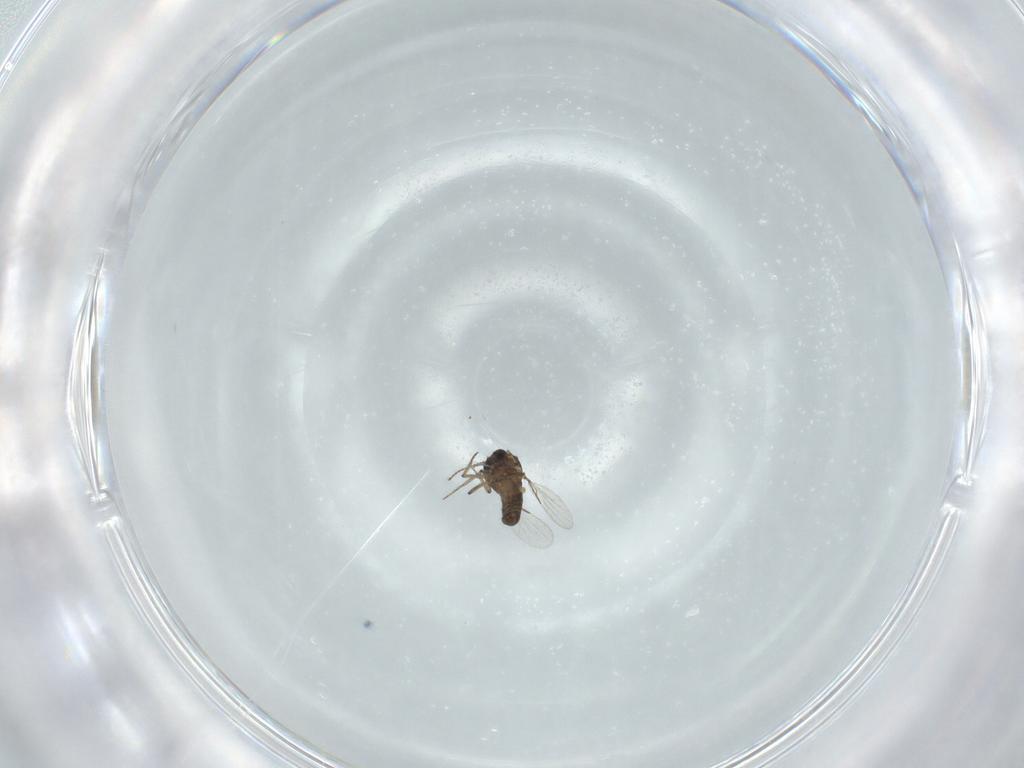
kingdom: Animalia
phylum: Arthropoda
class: Insecta
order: Diptera
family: Ceratopogonidae
